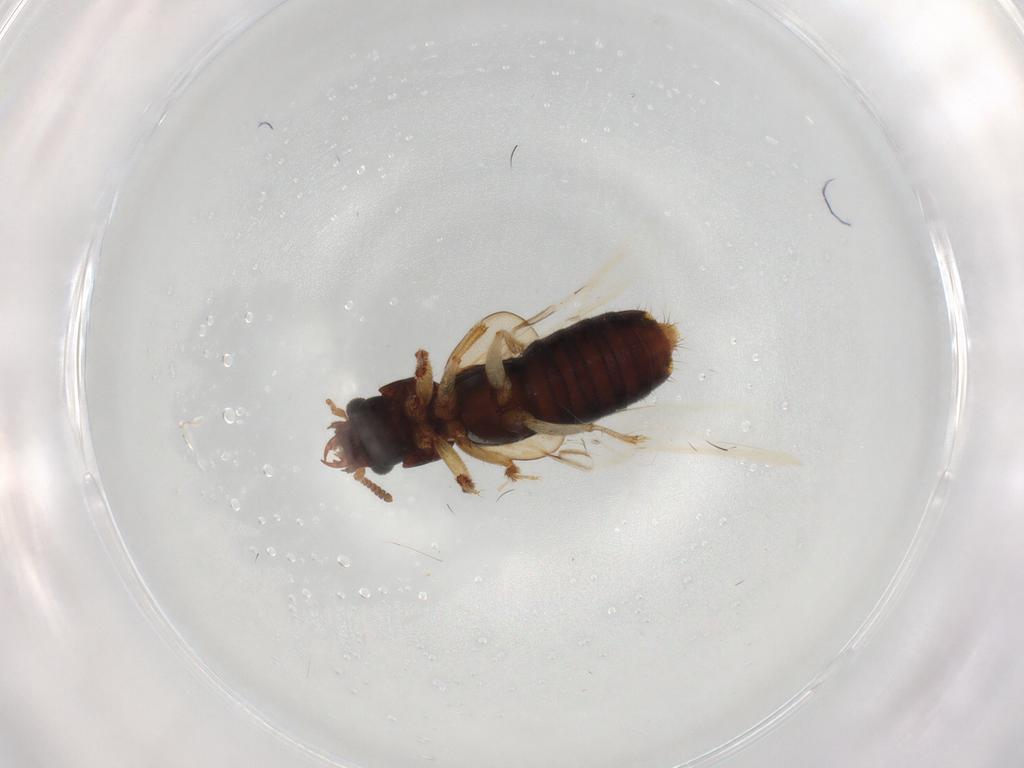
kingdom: Animalia
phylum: Arthropoda
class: Insecta
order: Coleoptera
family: Staphylinidae
